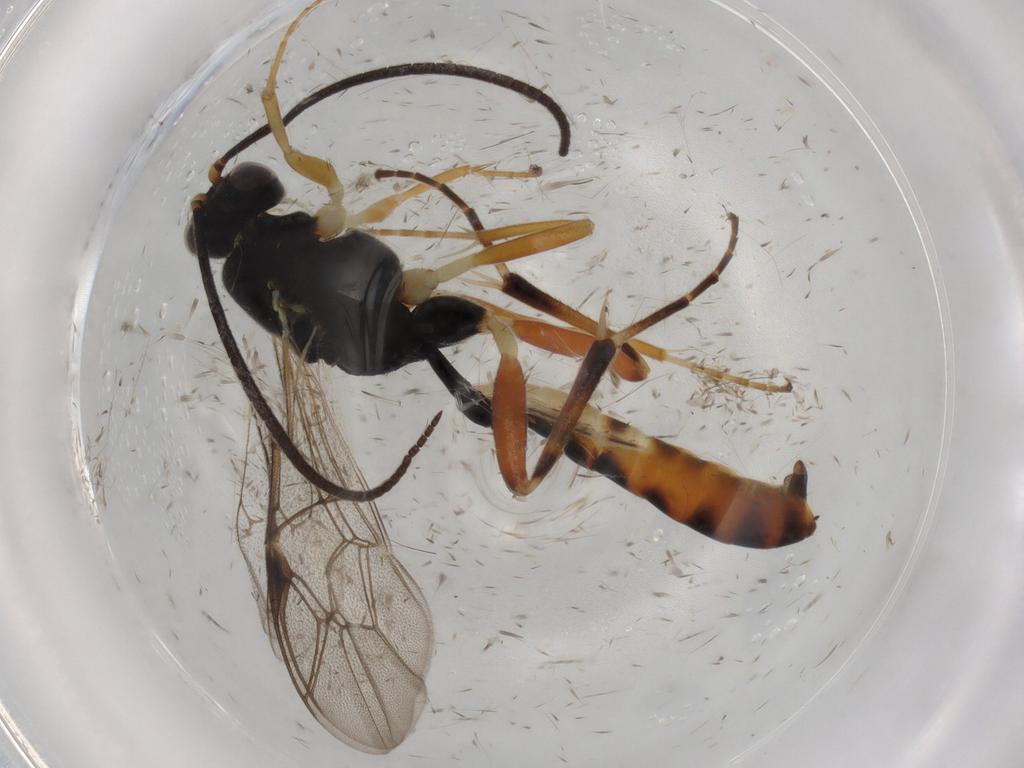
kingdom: Animalia
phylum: Arthropoda
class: Insecta
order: Hymenoptera
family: Ichneumonidae
